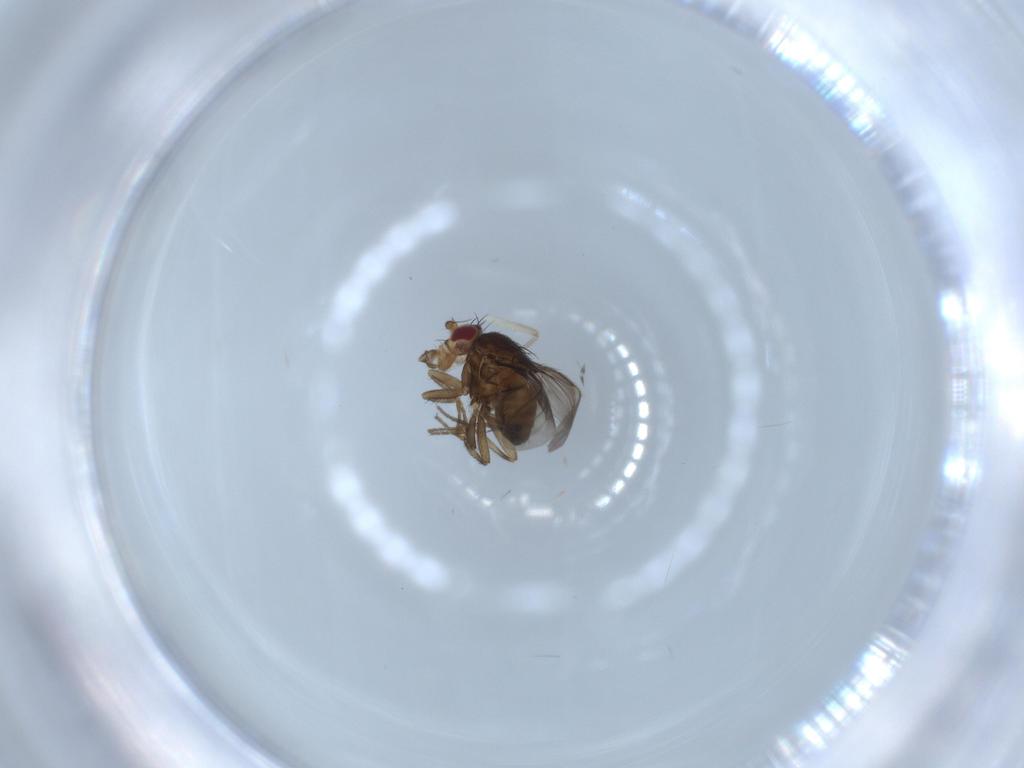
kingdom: Animalia
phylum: Arthropoda
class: Insecta
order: Diptera
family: Sphaeroceridae
